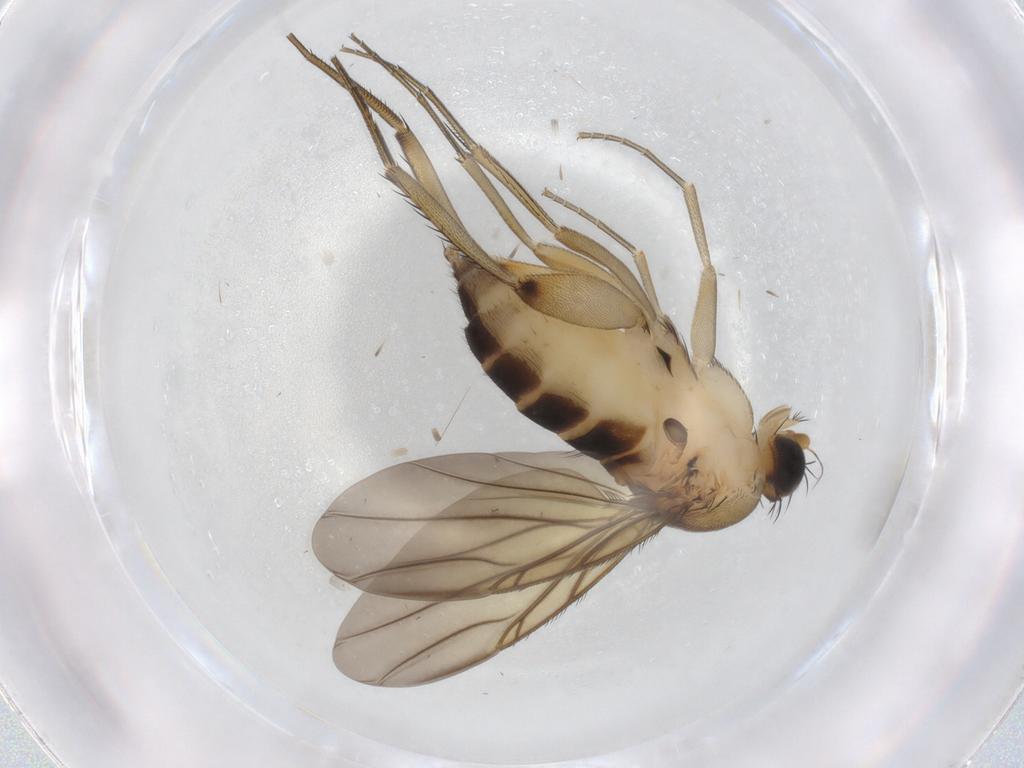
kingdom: Animalia
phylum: Arthropoda
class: Insecta
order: Diptera
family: Phoridae
